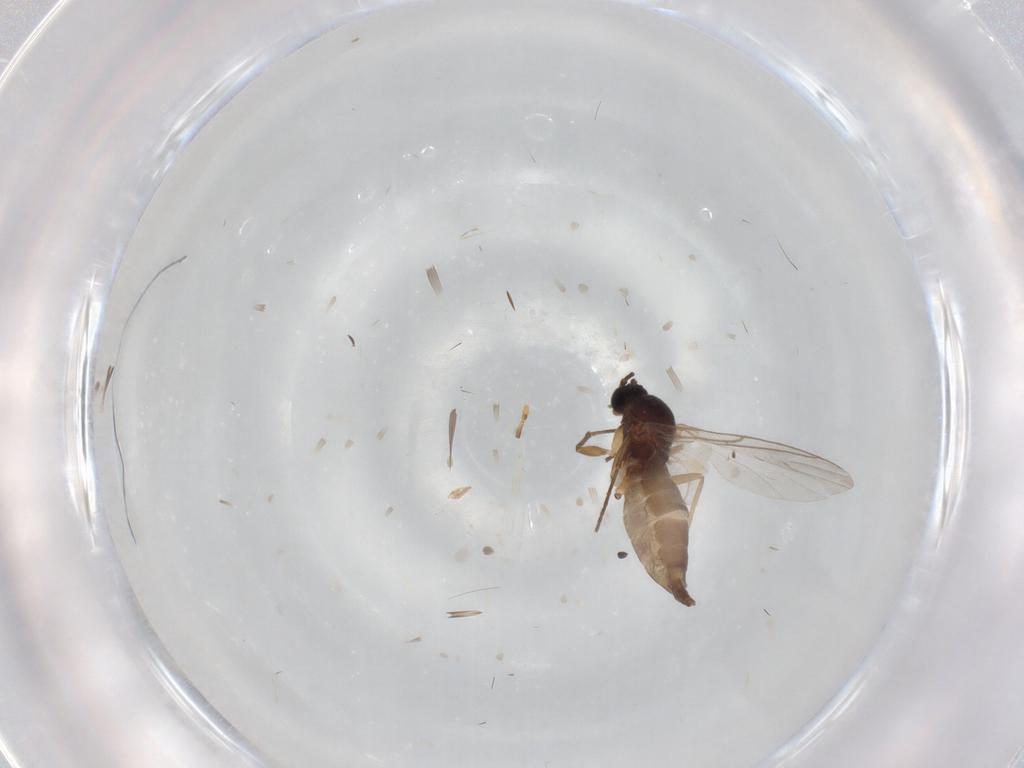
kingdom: Animalia
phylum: Arthropoda
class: Insecta
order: Diptera
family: Sciaridae
